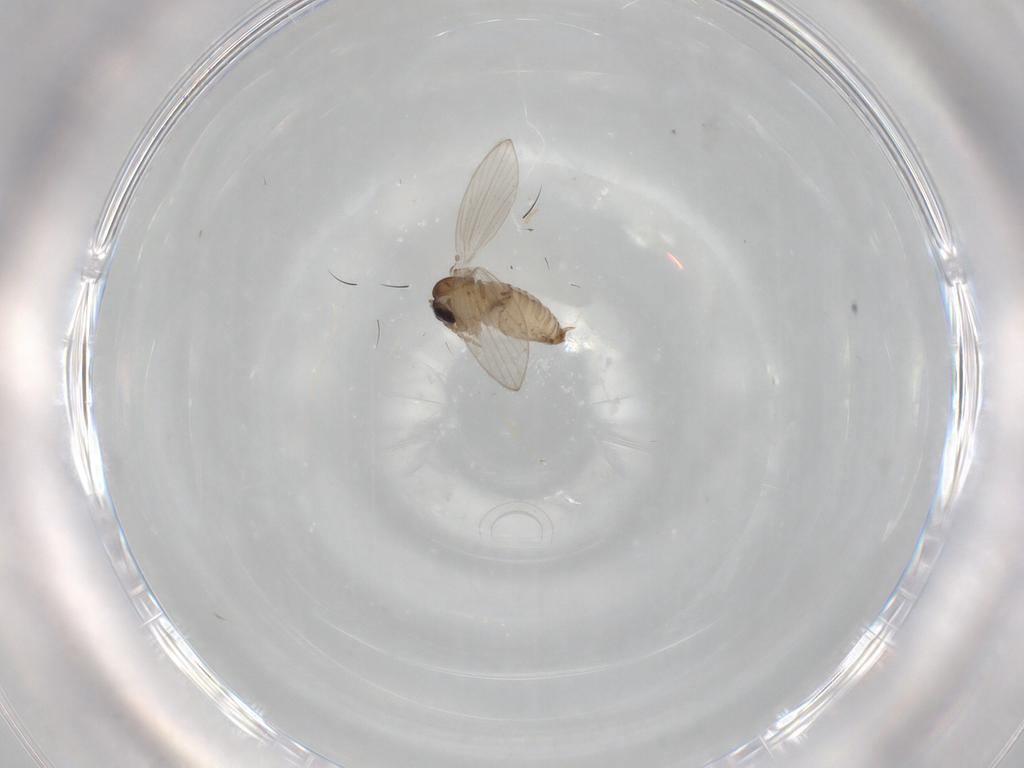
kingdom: Animalia
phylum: Arthropoda
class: Insecta
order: Diptera
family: Psychodidae
